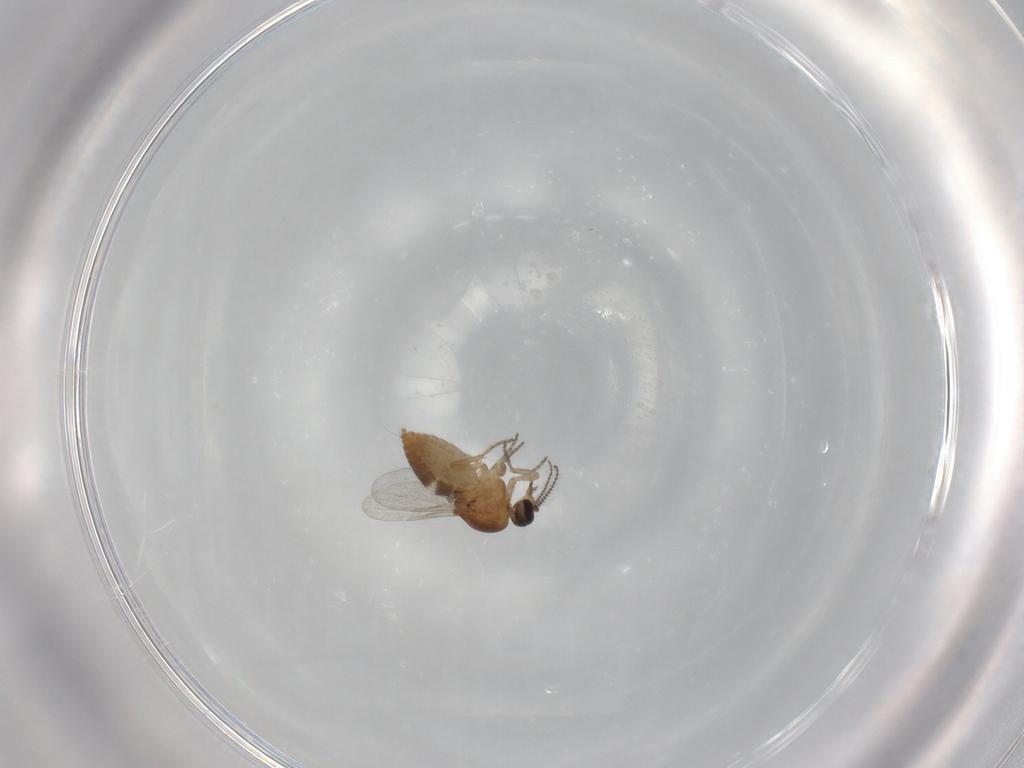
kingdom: Animalia
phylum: Arthropoda
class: Insecta
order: Diptera
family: Ceratopogonidae
